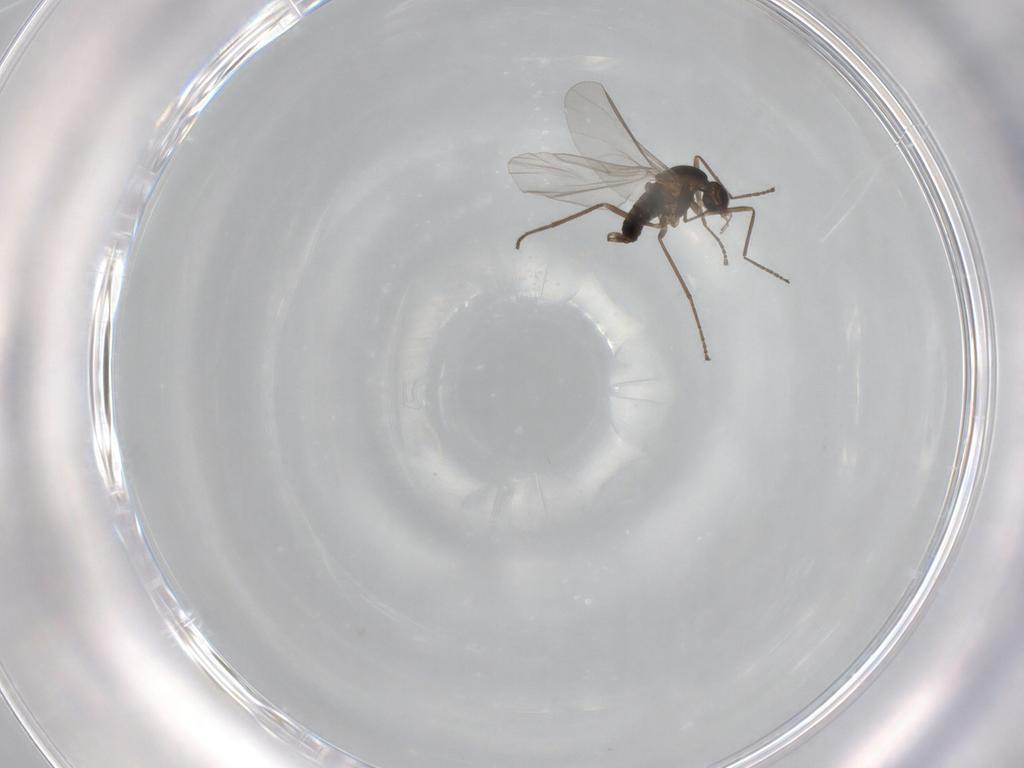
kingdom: Animalia
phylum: Arthropoda
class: Insecta
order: Diptera
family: Cecidomyiidae
